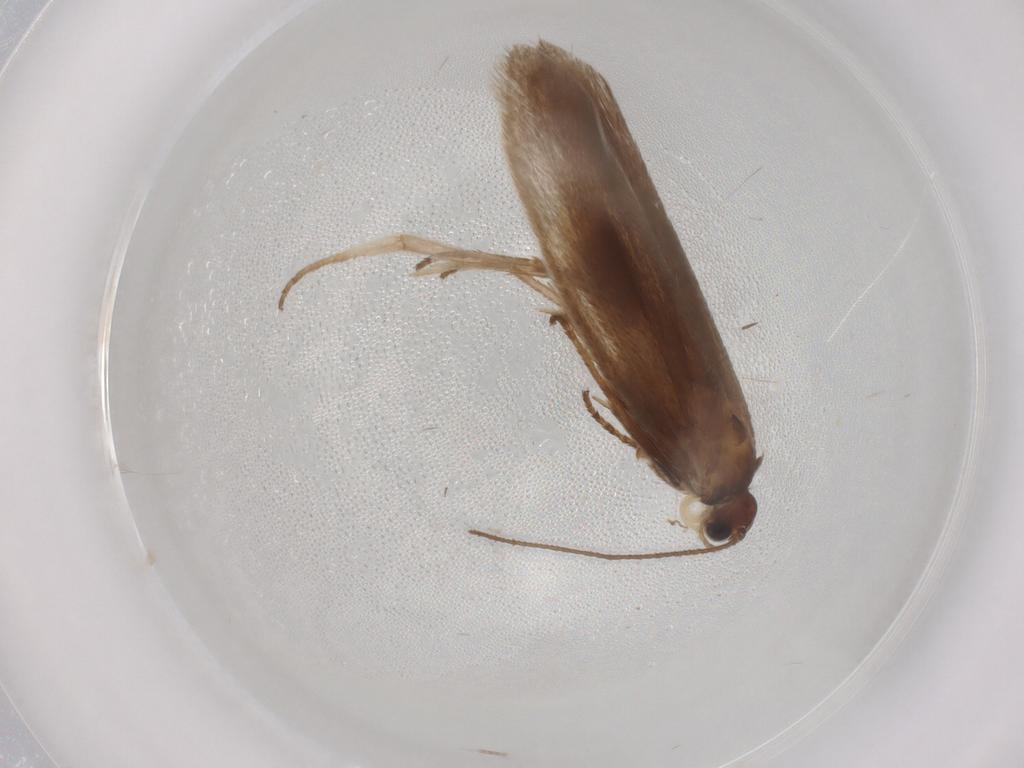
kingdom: Animalia
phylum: Arthropoda
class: Insecta
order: Lepidoptera
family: Limacodidae
